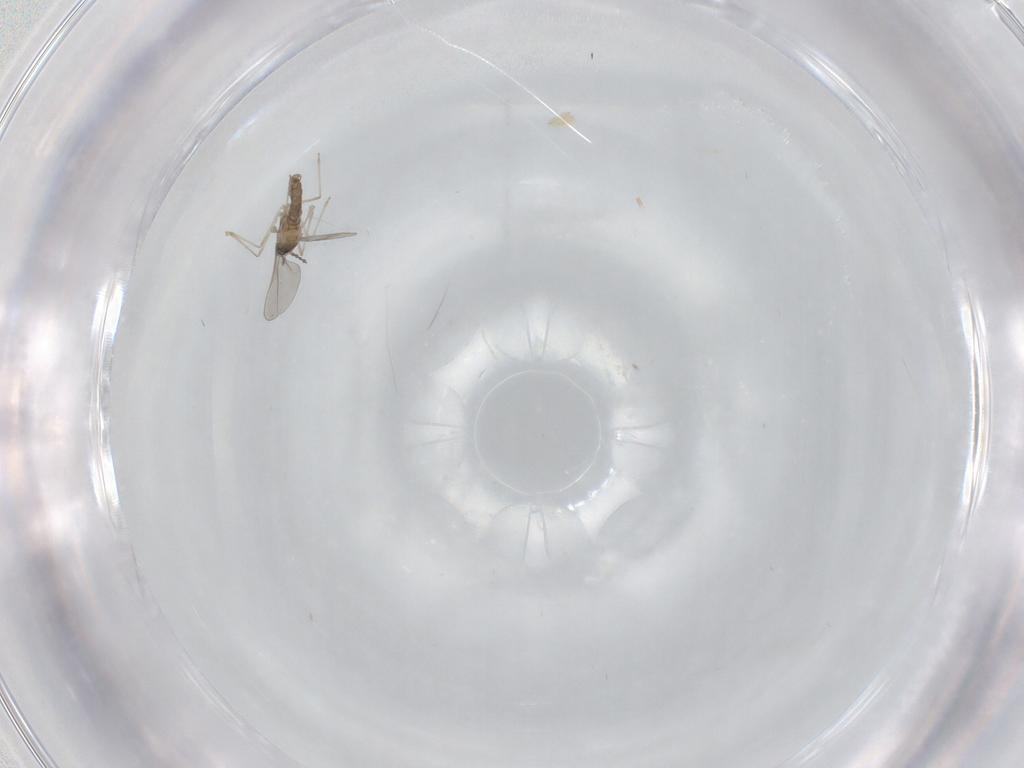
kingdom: Animalia
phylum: Arthropoda
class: Insecta
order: Diptera
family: Cecidomyiidae
